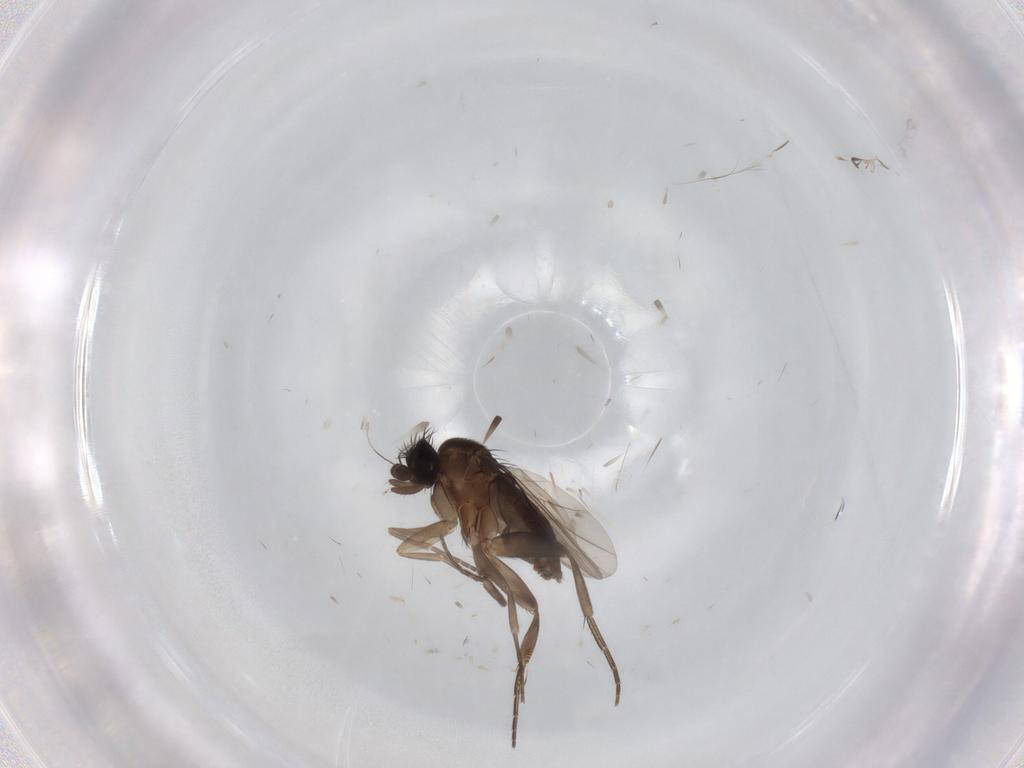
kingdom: Animalia
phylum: Arthropoda
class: Insecta
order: Diptera
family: Phoridae
